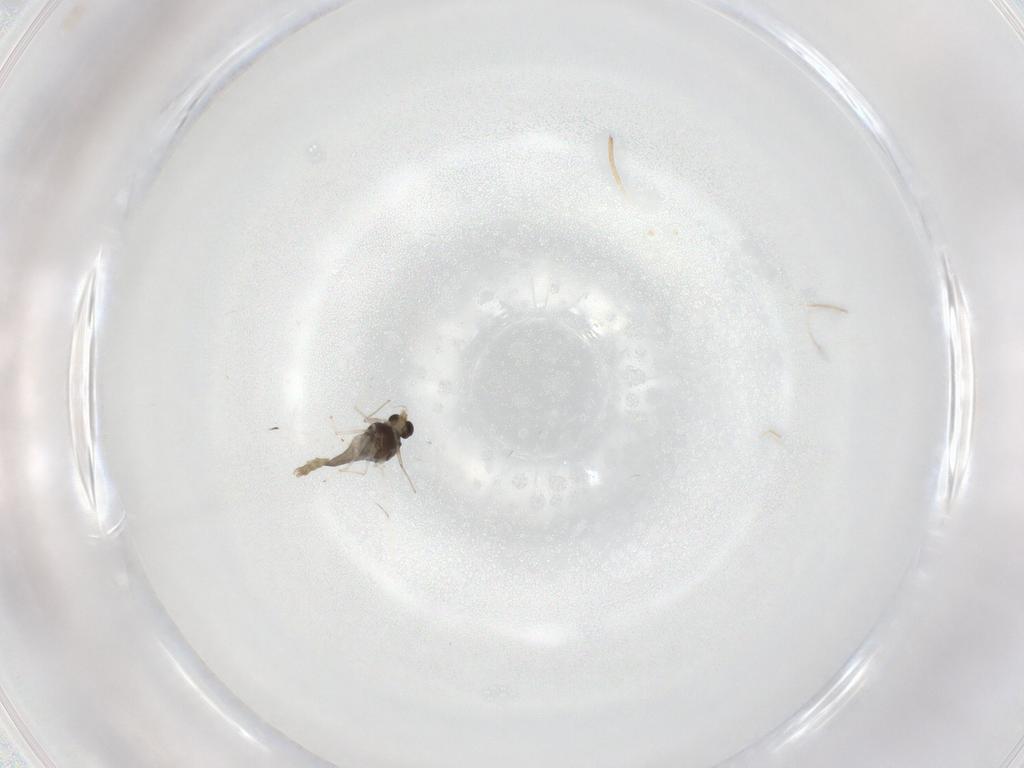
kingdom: Animalia
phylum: Arthropoda
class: Insecta
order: Diptera
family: Chironomidae
